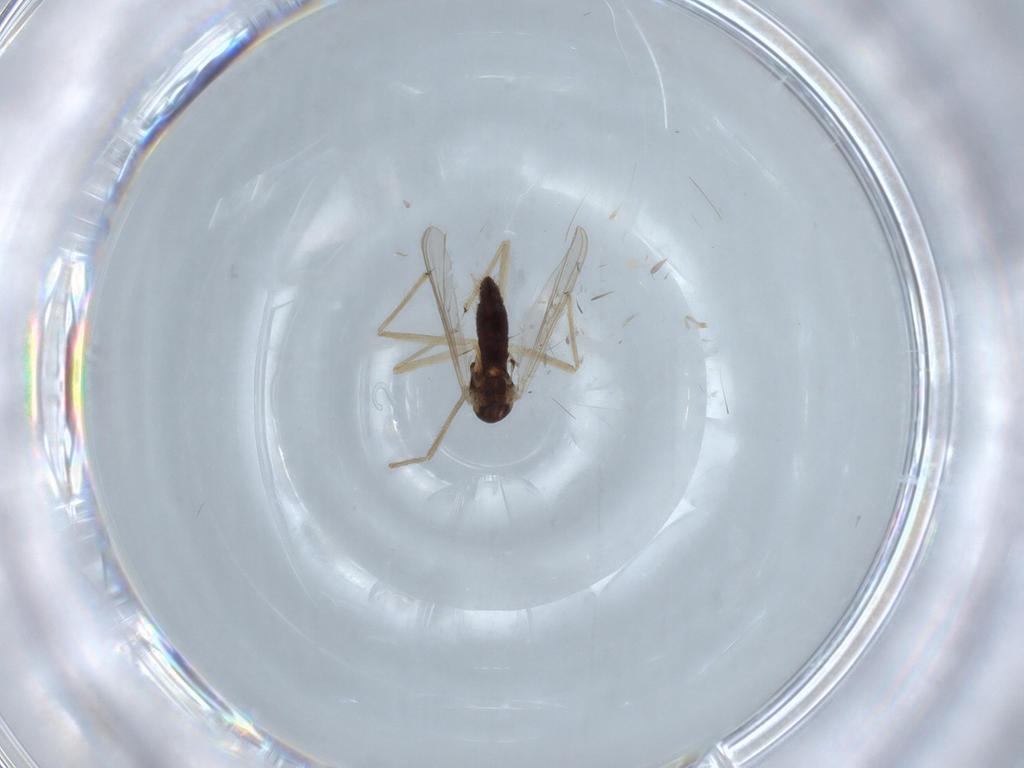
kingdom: Animalia
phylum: Arthropoda
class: Insecta
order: Diptera
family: Chironomidae
